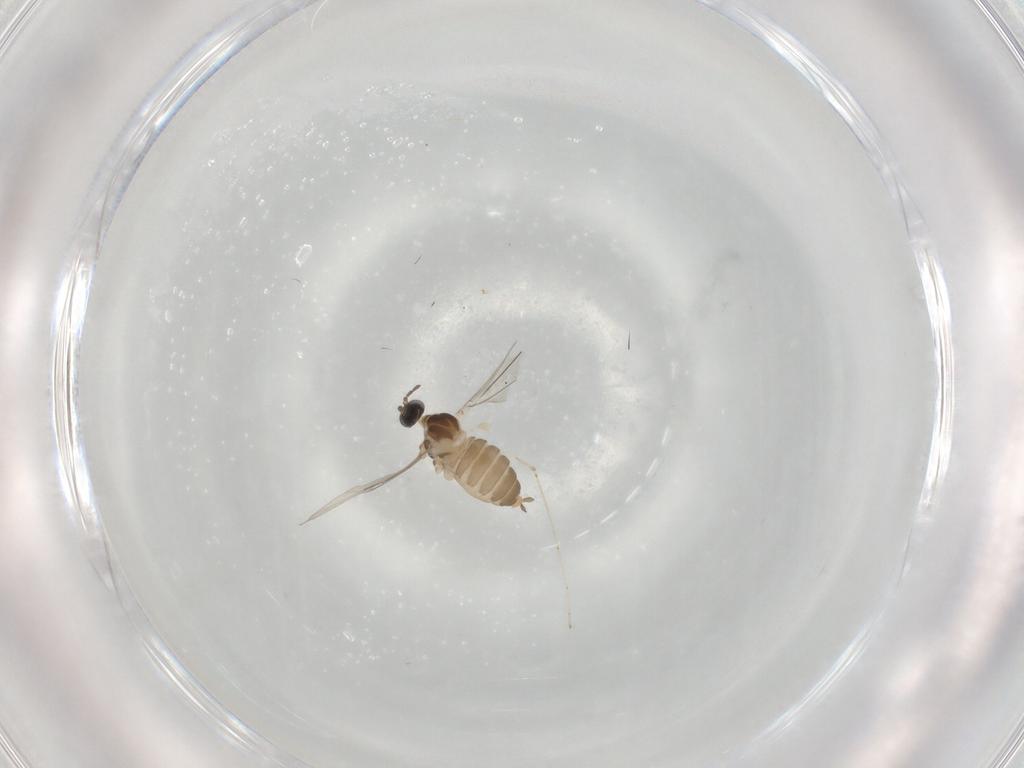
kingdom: Animalia
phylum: Arthropoda
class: Insecta
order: Diptera
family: Cecidomyiidae
